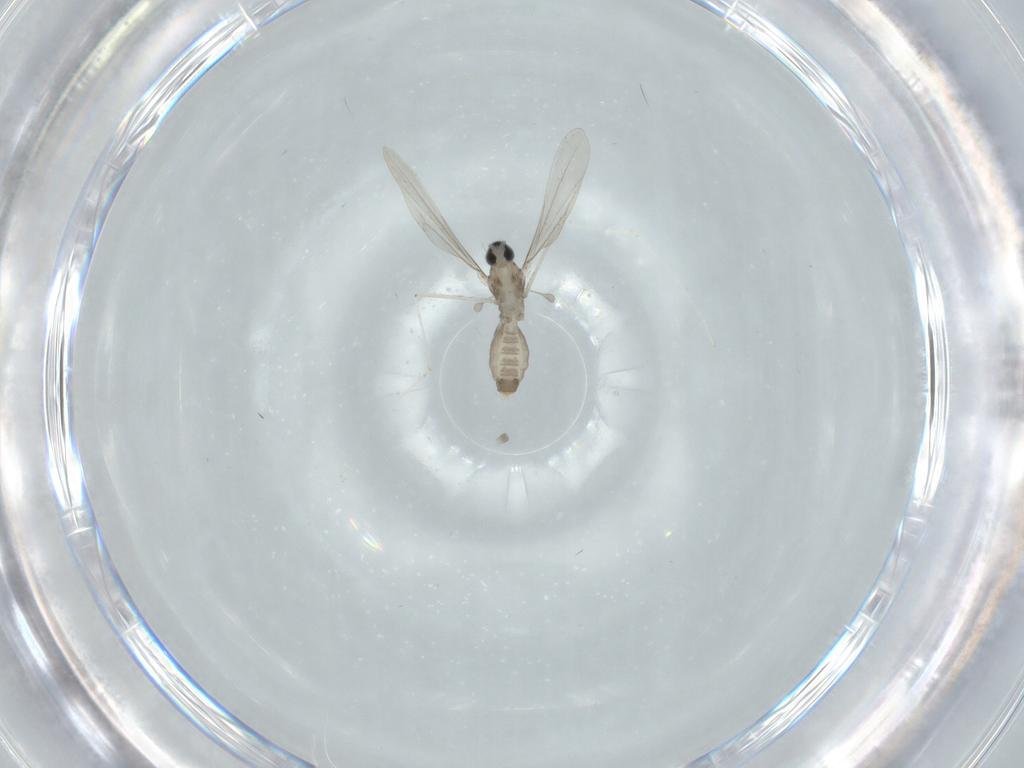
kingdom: Animalia
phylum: Arthropoda
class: Insecta
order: Diptera
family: Cecidomyiidae
